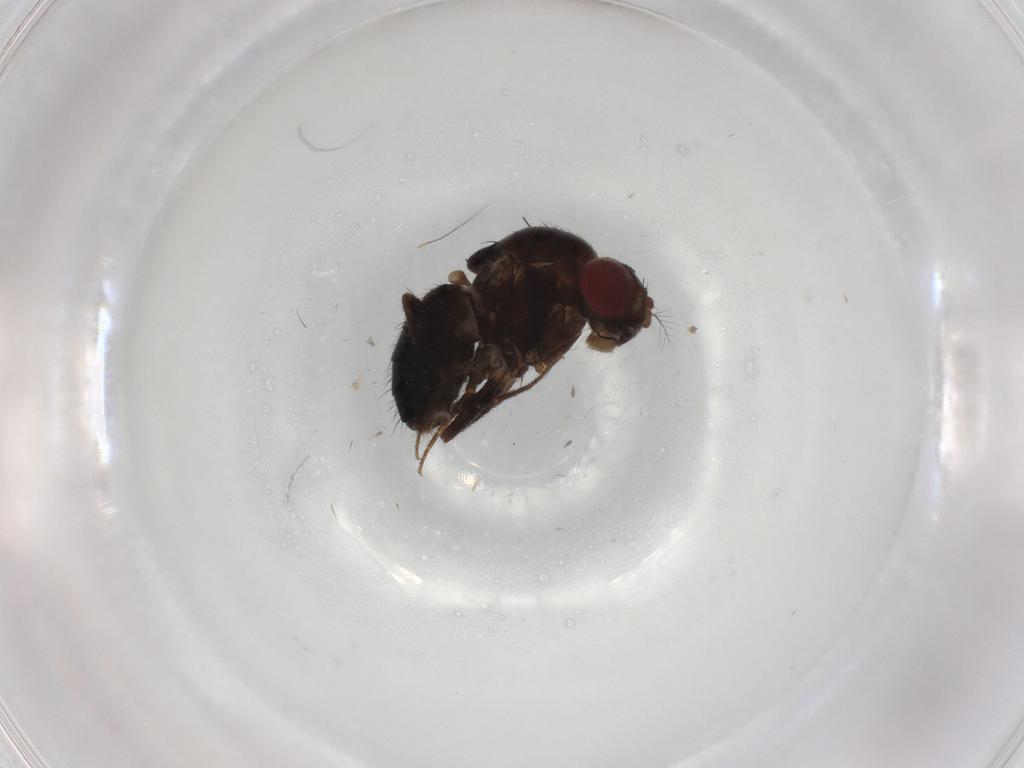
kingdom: Animalia
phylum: Arthropoda
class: Insecta
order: Diptera
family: Drosophilidae
